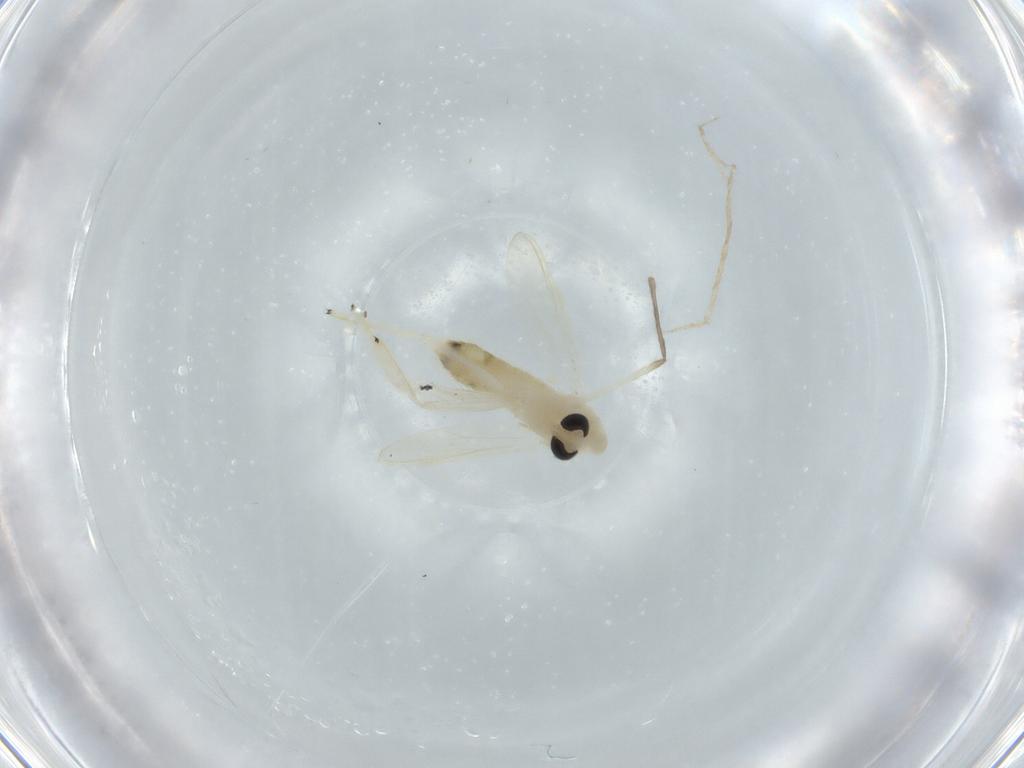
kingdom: Animalia
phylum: Arthropoda
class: Insecta
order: Diptera
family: Chironomidae
